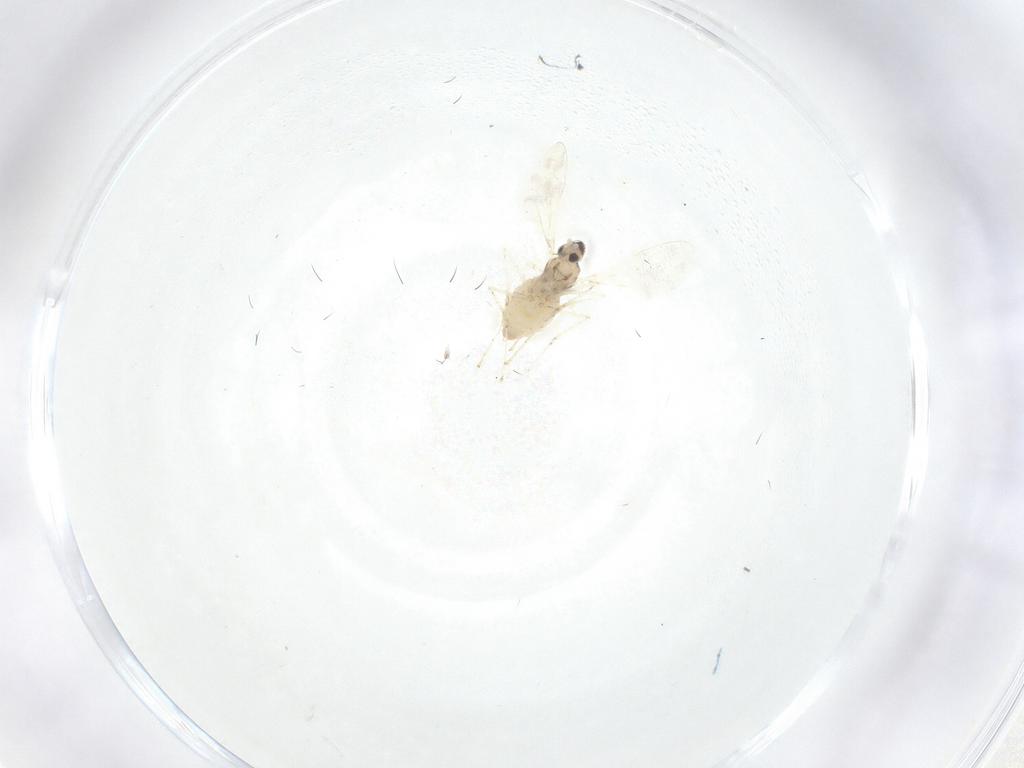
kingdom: Animalia
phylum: Arthropoda
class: Insecta
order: Diptera
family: Cecidomyiidae
